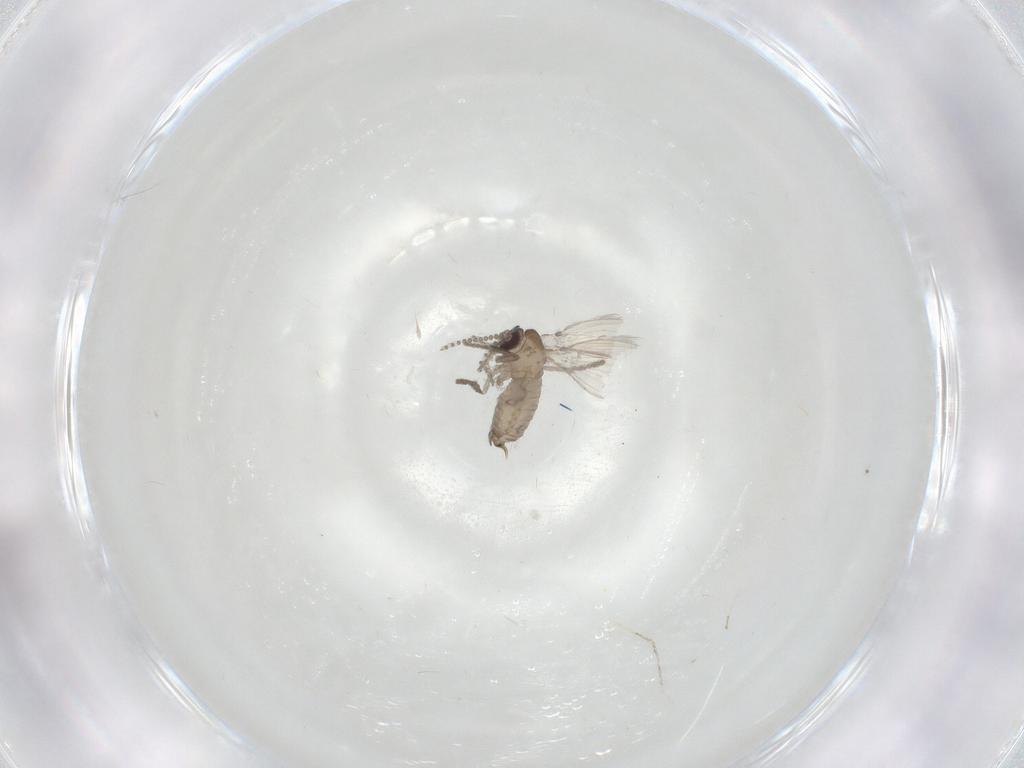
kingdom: Animalia
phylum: Arthropoda
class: Insecta
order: Diptera
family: Psychodidae
